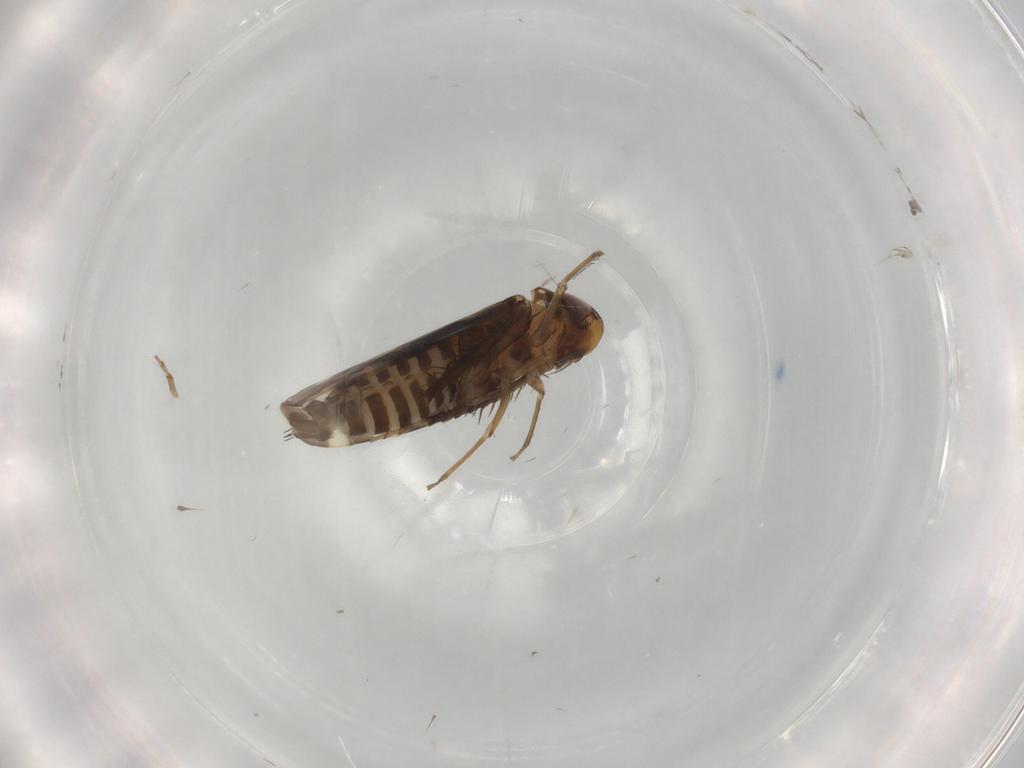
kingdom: Animalia
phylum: Arthropoda
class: Insecta
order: Hemiptera
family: Cicadellidae
